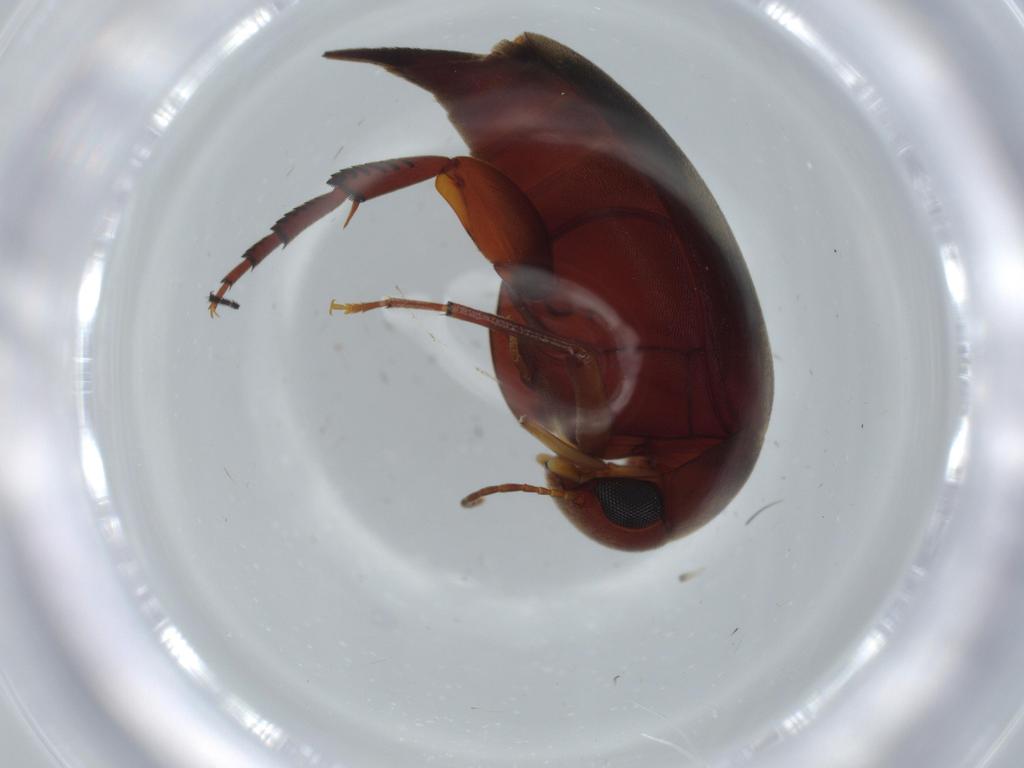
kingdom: Animalia
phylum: Arthropoda
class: Insecta
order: Coleoptera
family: Mordellidae
